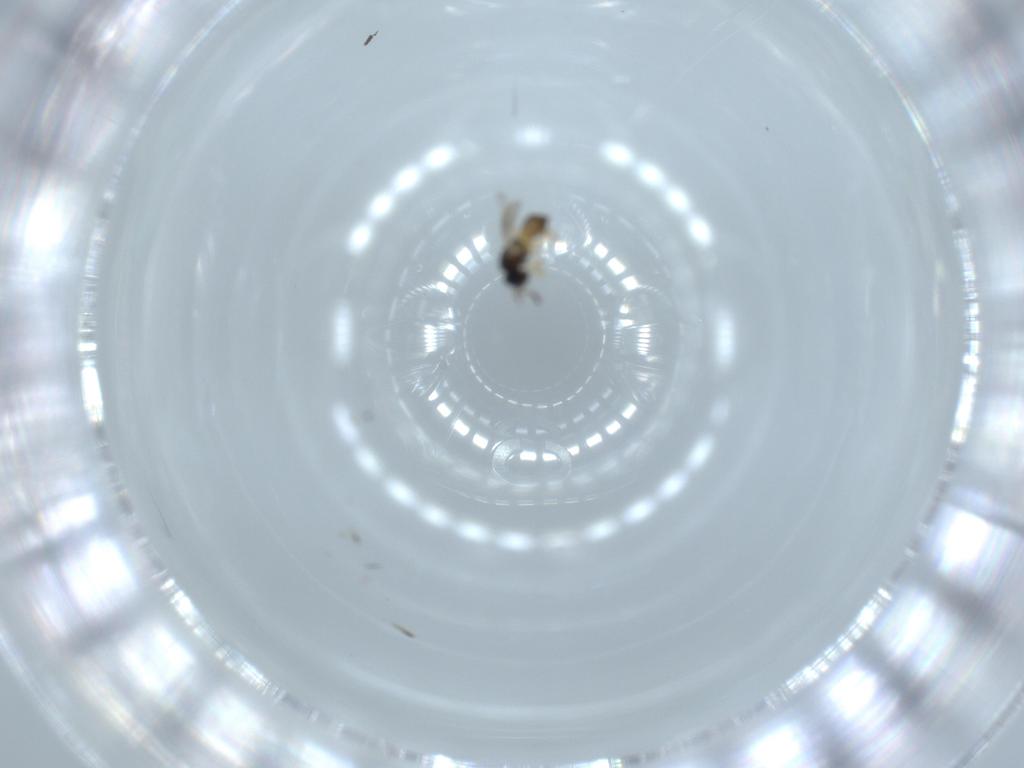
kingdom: Animalia
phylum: Arthropoda
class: Insecta
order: Hymenoptera
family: Scelionidae
